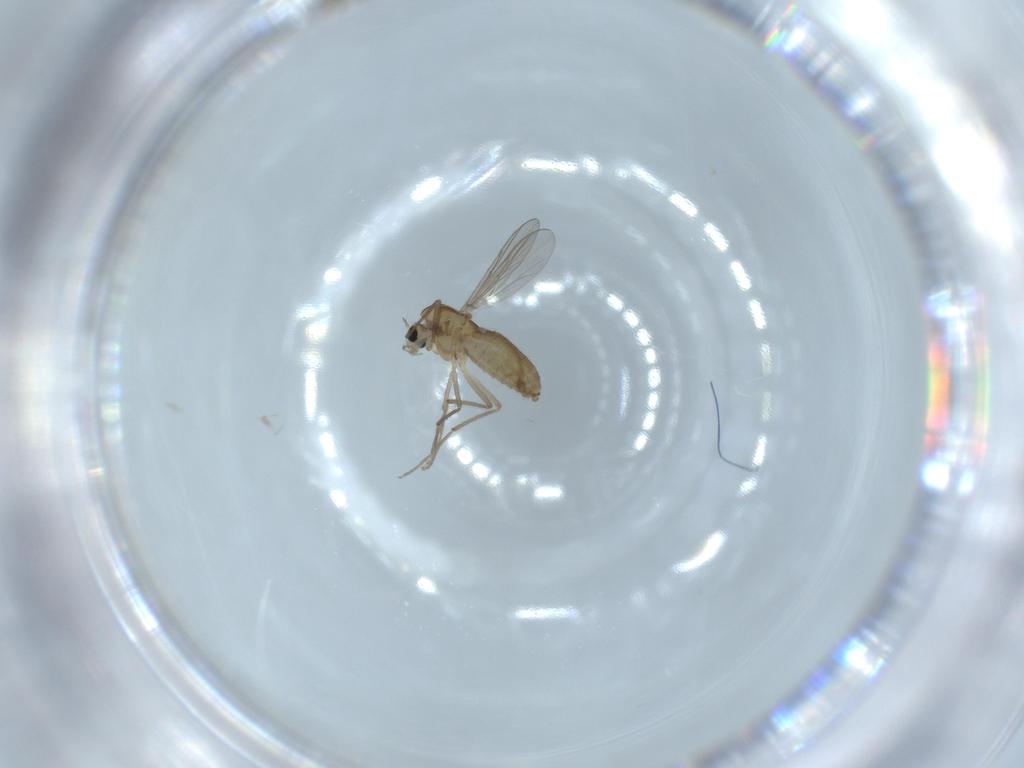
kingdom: Animalia
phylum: Arthropoda
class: Insecta
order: Diptera
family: Chironomidae
